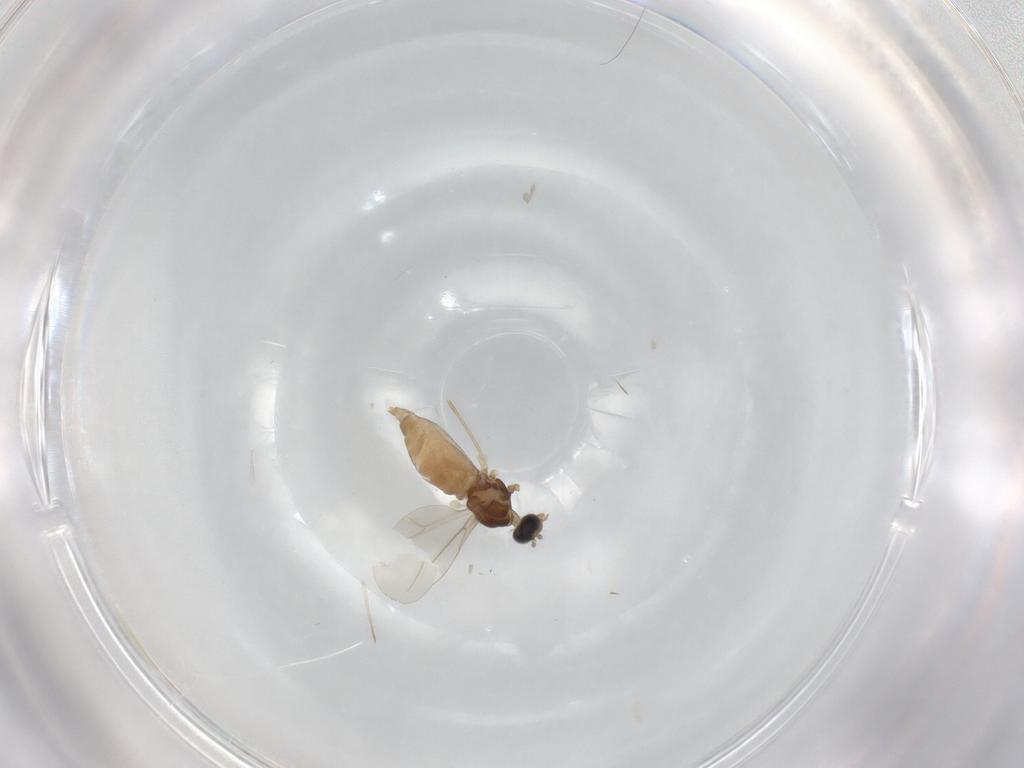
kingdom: Animalia
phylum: Arthropoda
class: Insecta
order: Diptera
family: Cecidomyiidae
